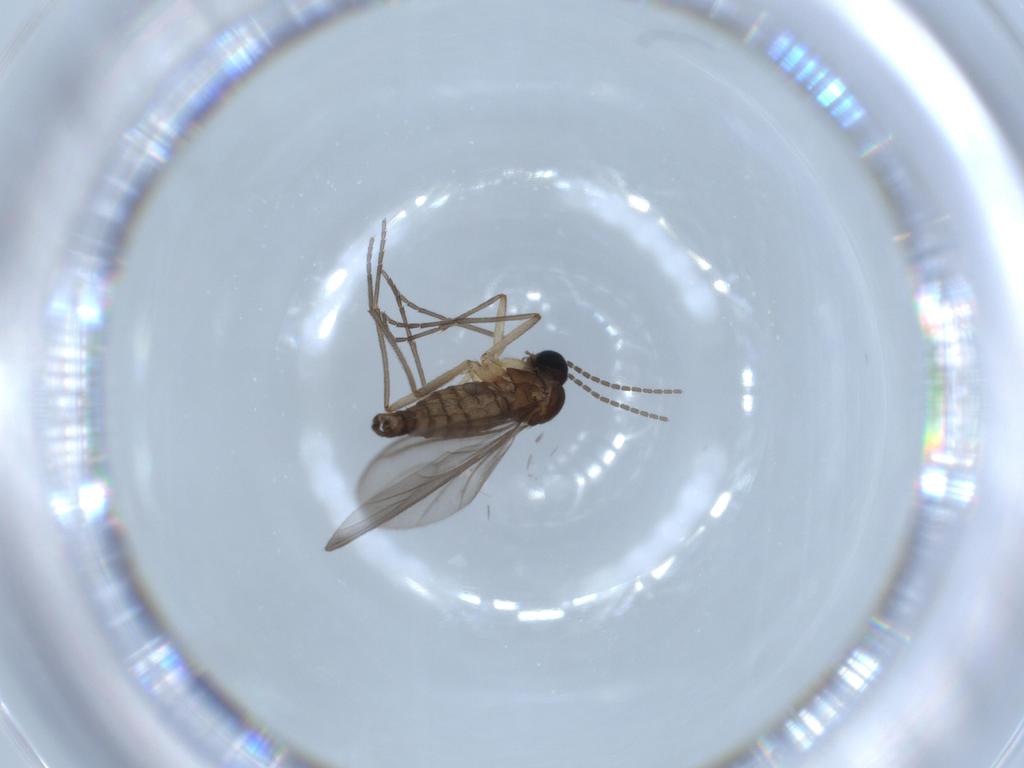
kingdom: Animalia
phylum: Arthropoda
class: Insecta
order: Diptera
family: Sciaridae
